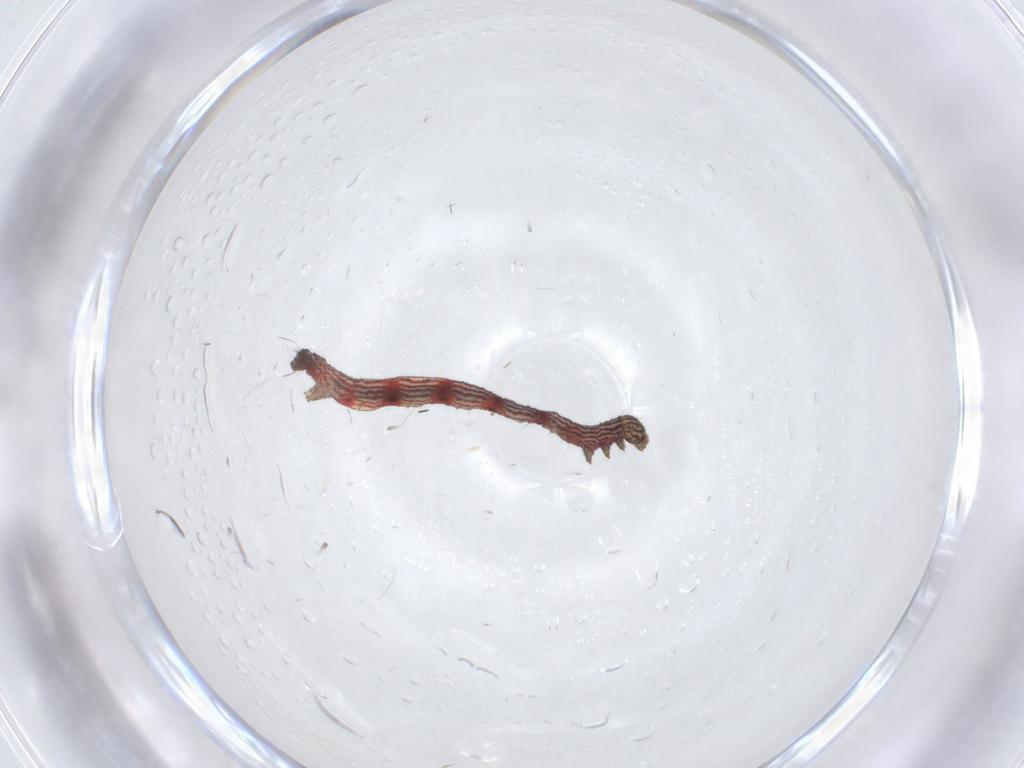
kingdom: Animalia
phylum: Arthropoda
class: Insecta
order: Lepidoptera
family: Geometridae
